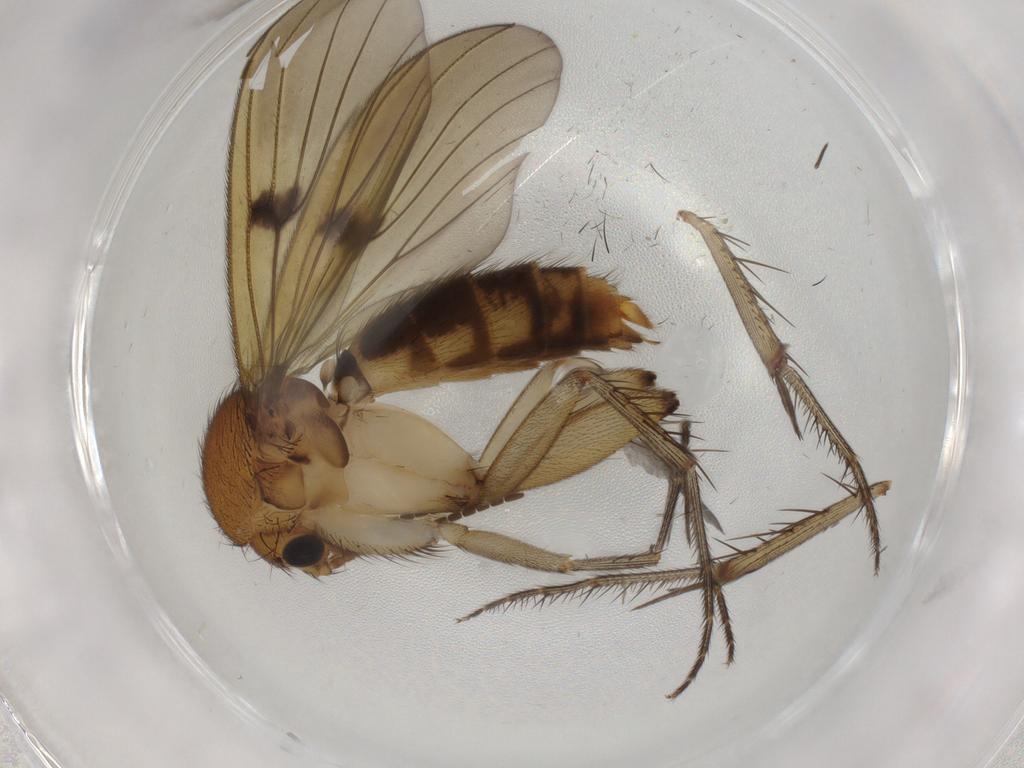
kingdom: Animalia
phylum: Arthropoda
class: Insecta
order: Diptera
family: Mycetophilidae
